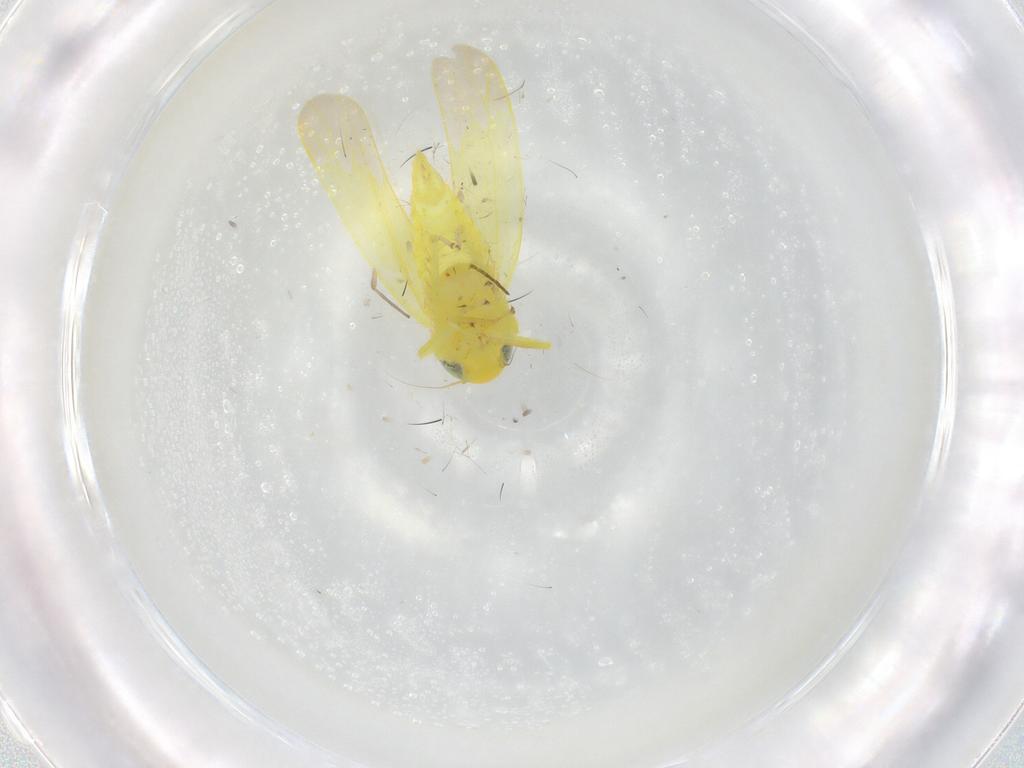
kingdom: Animalia
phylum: Arthropoda
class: Insecta
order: Hemiptera
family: Cicadellidae
